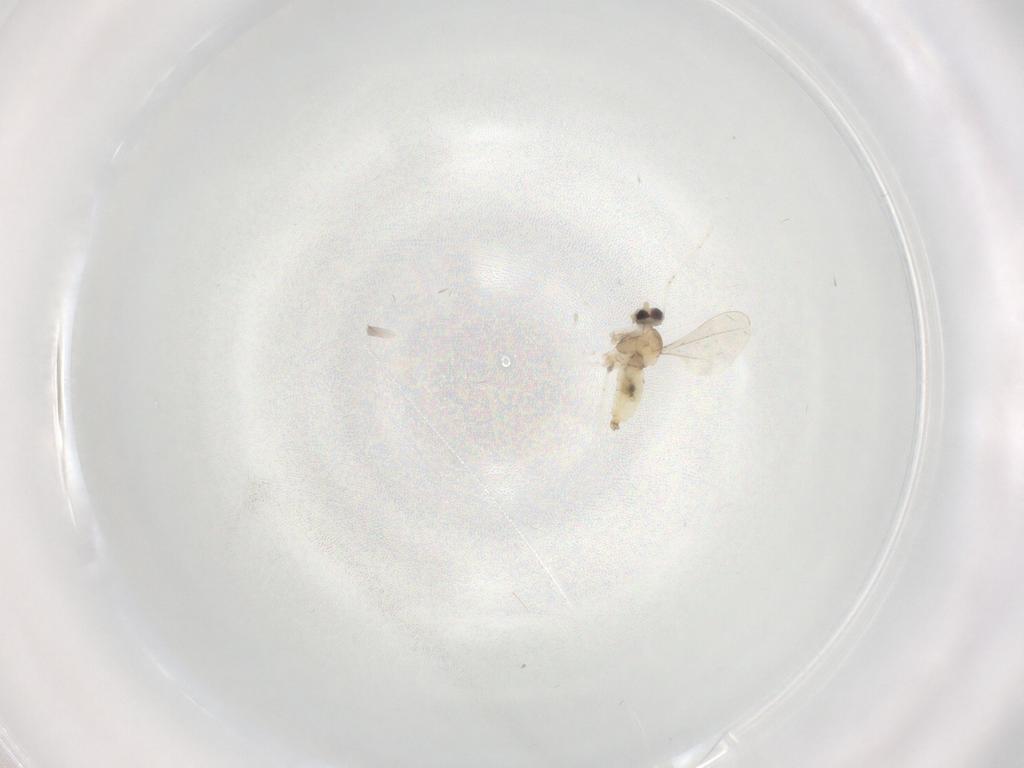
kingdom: Animalia
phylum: Arthropoda
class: Insecta
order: Diptera
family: Cecidomyiidae
